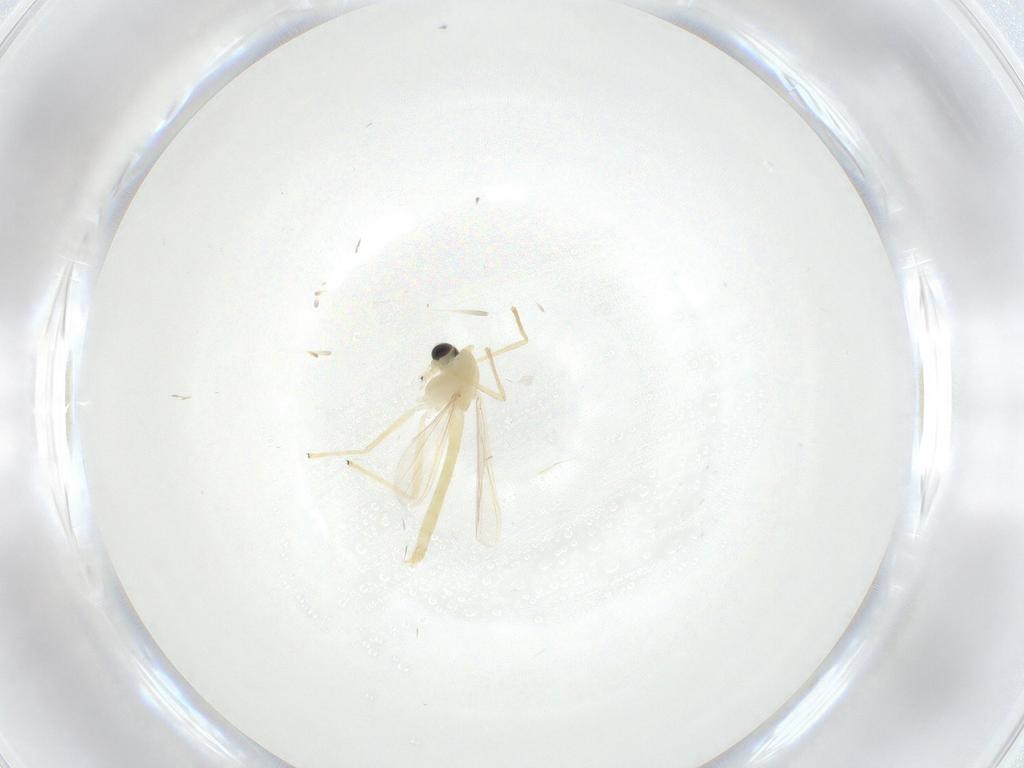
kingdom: Animalia
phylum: Arthropoda
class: Insecta
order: Diptera
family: Chironomidae
